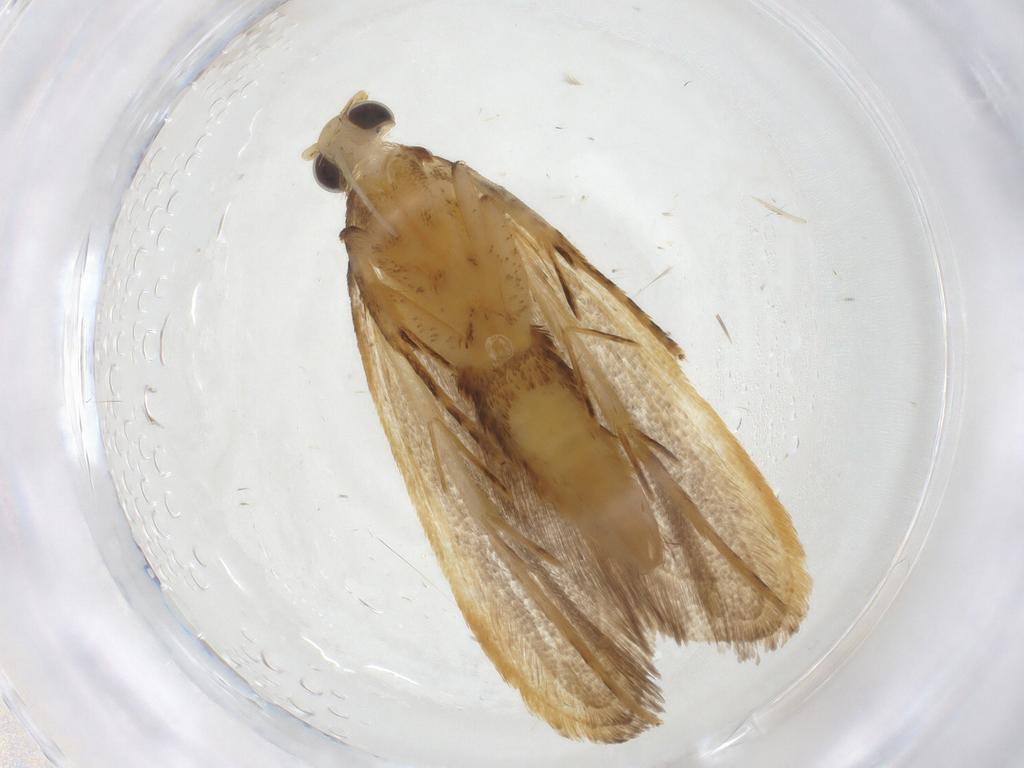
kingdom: Animalia
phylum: Arthropoda
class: Insecta
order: Lepidoptera
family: Lecithoceridae
